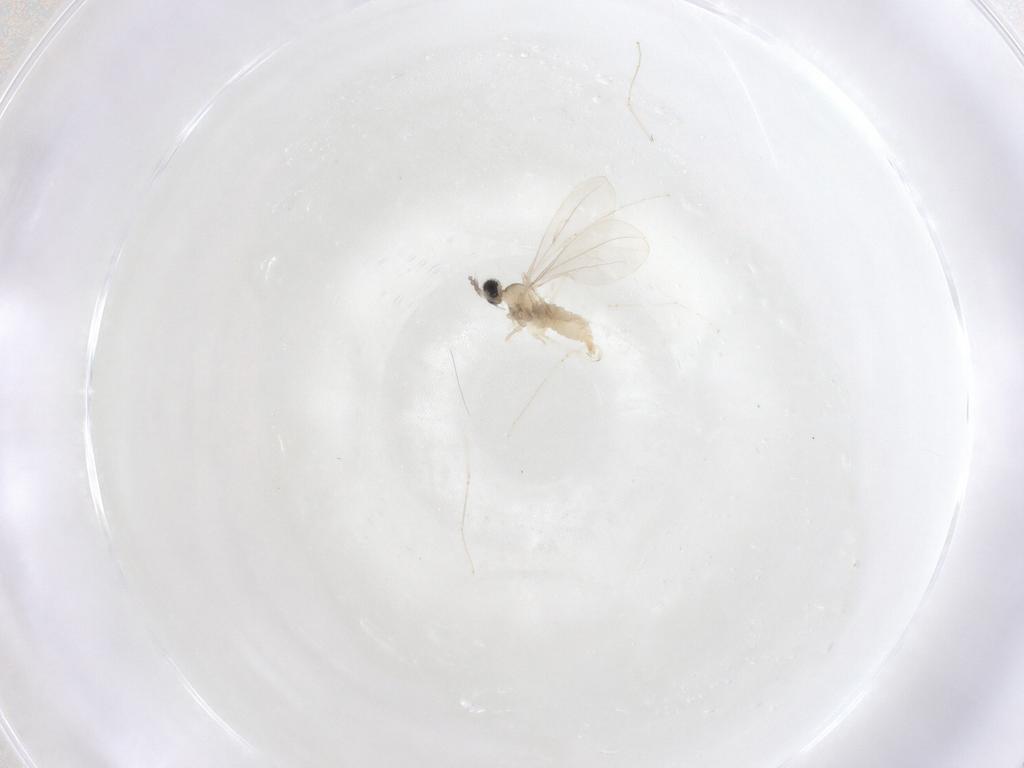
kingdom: Animalia
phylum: Arthropoda
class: Insecta
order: Diptera
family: Cecidomyiidae
